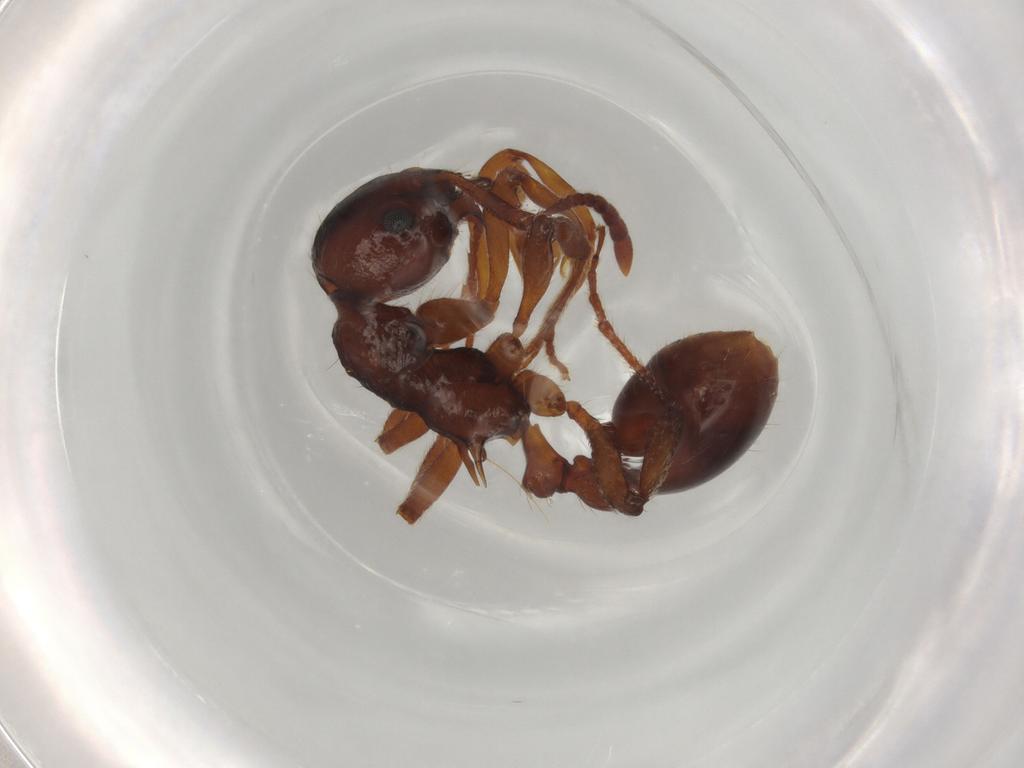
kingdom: Animalia
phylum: Arthropoda
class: Insecta
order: Hymenoptera
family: Formicidae
